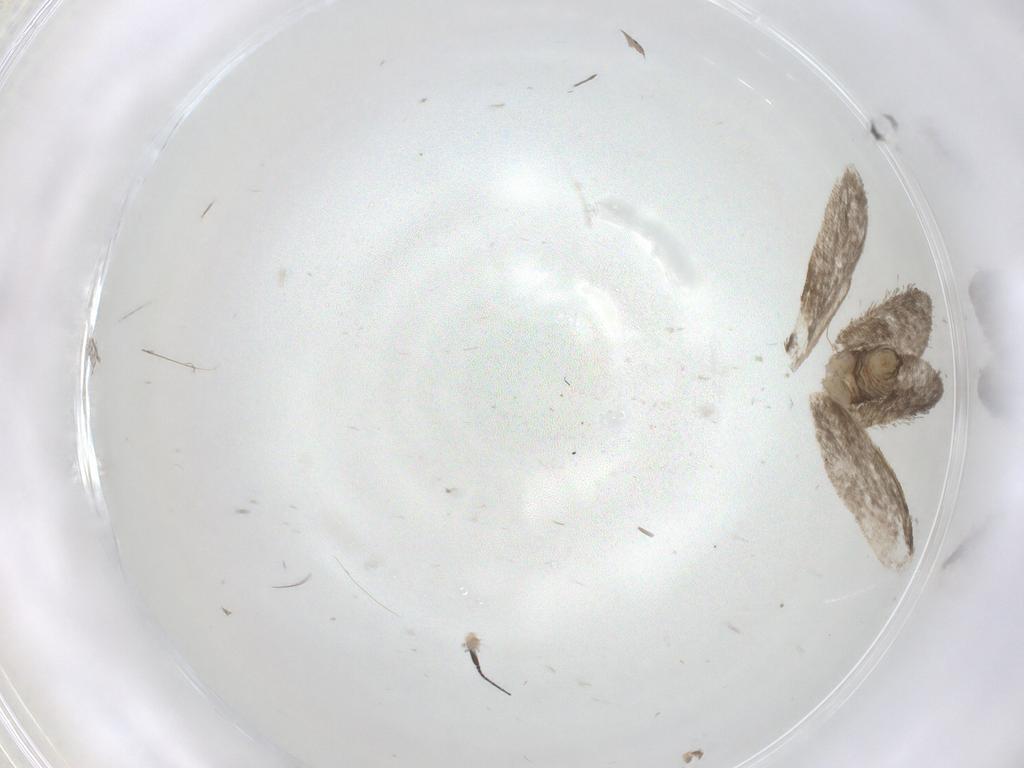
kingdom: Animalia
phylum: Arthropoda
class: Insecta
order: Lepidoptera
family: Psychidae
